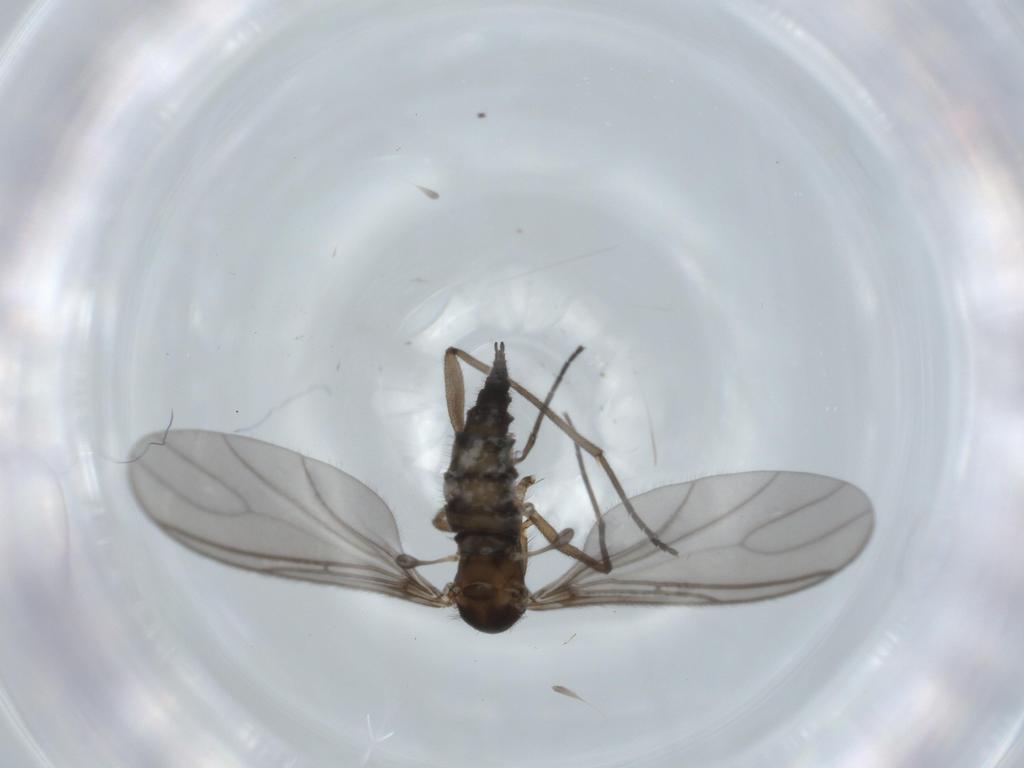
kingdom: Animalia
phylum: Arthropoda
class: Insecta
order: Diptera
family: Sciaridae
